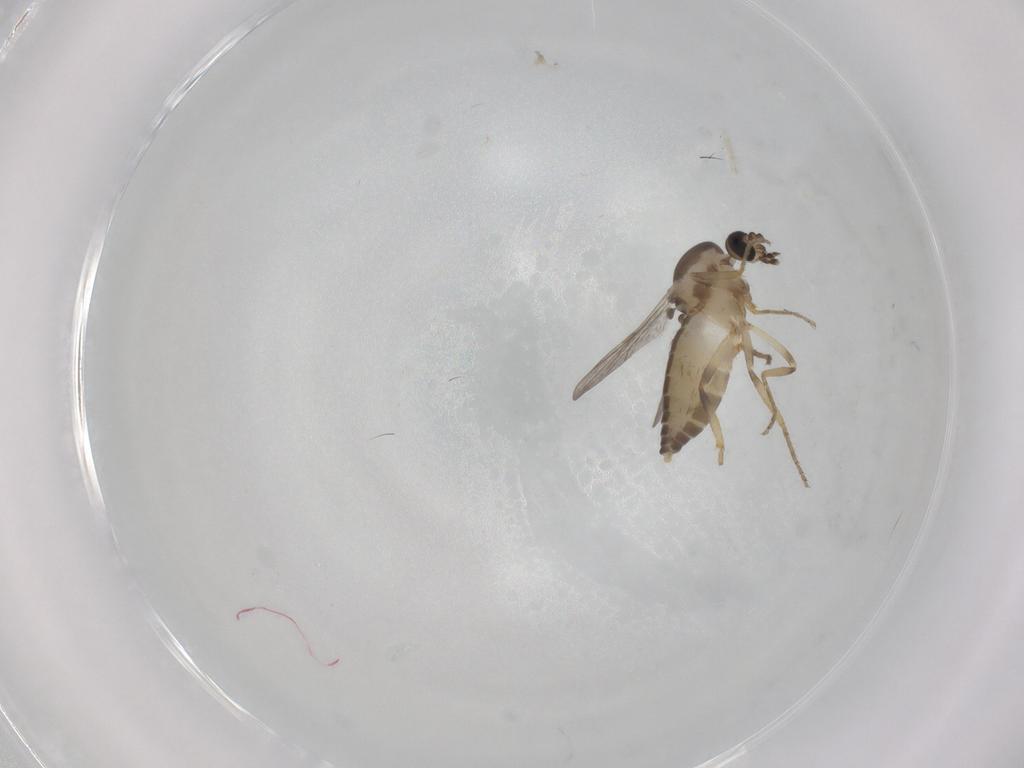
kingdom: Animalia
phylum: Arthropoda
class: Insecta
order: Diptera
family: Ceratopogonidae
